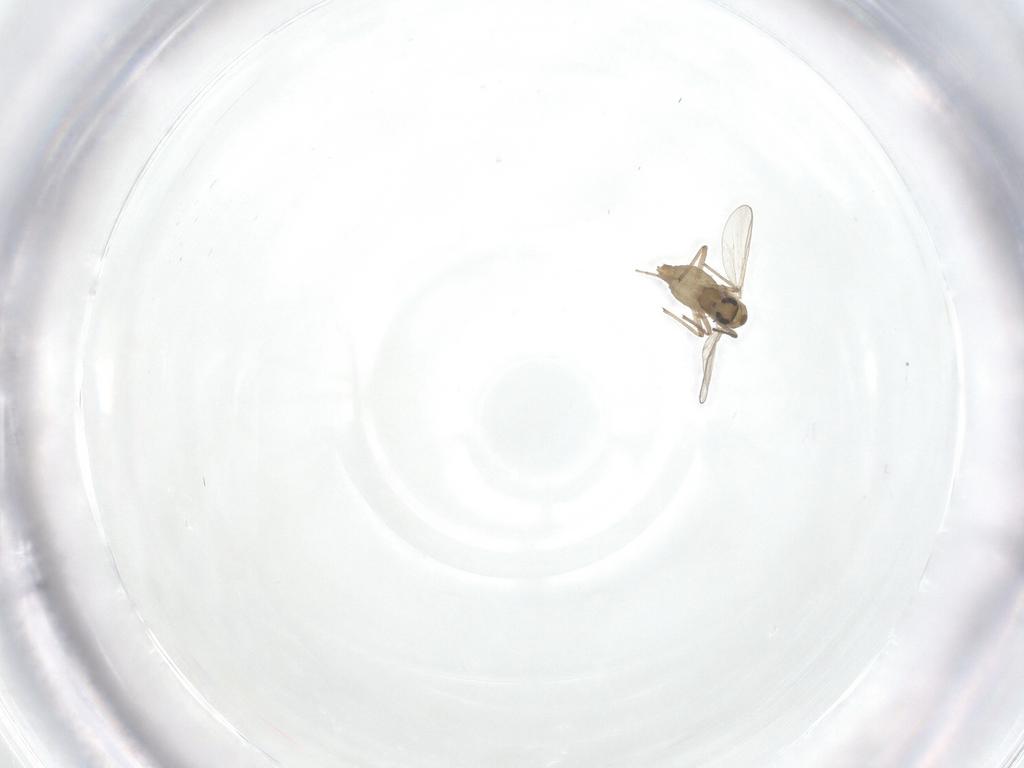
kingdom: Animalia
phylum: Arthropoda
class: Insecta
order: Diptera
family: Chironomidae
